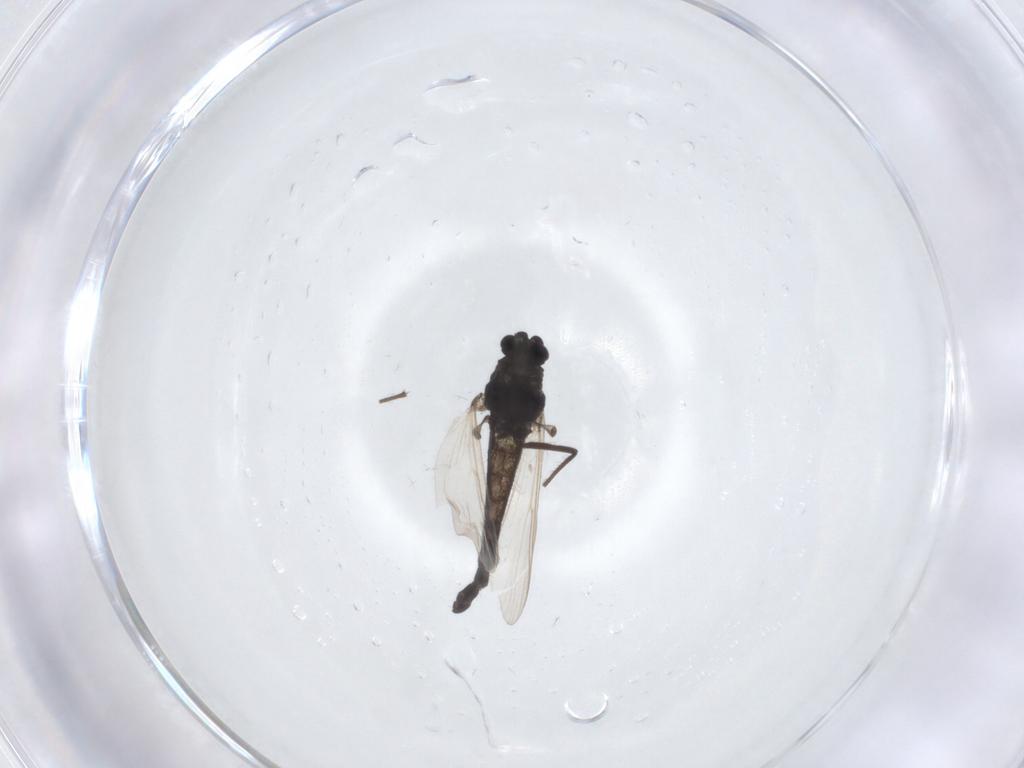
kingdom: Animalia
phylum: Arthropoda
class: Insecta
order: Diptera
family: Chironomidae
